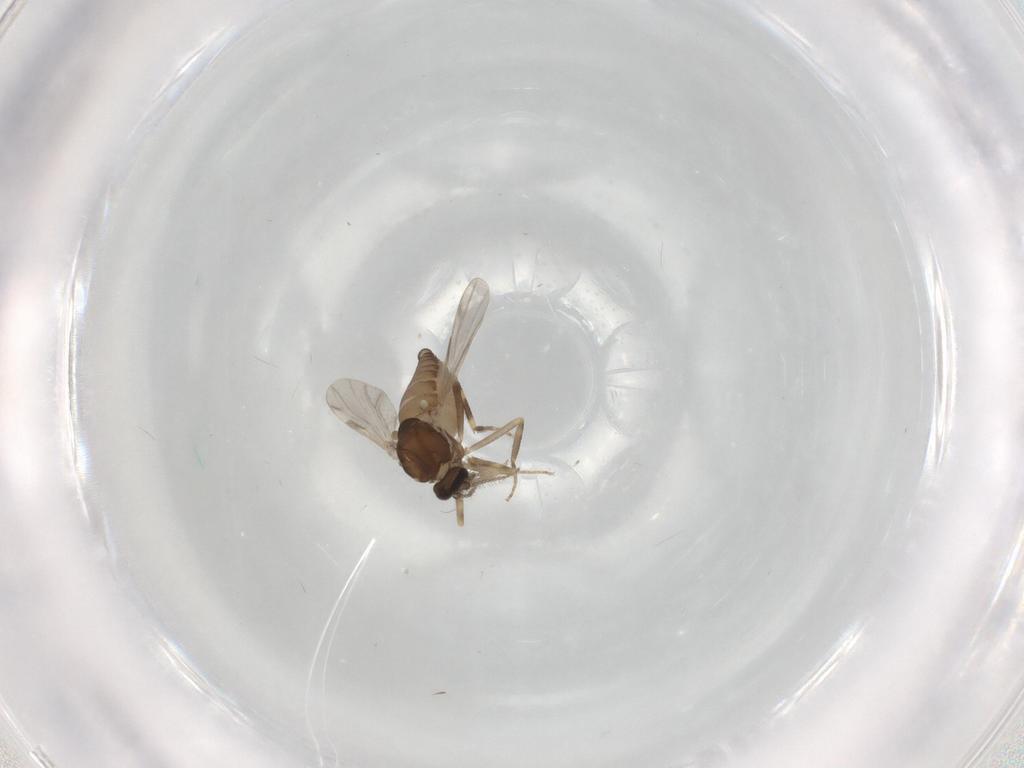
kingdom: Animalia
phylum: Arthropoda
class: Insecta
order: Diptera
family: Ceratopogonidae
